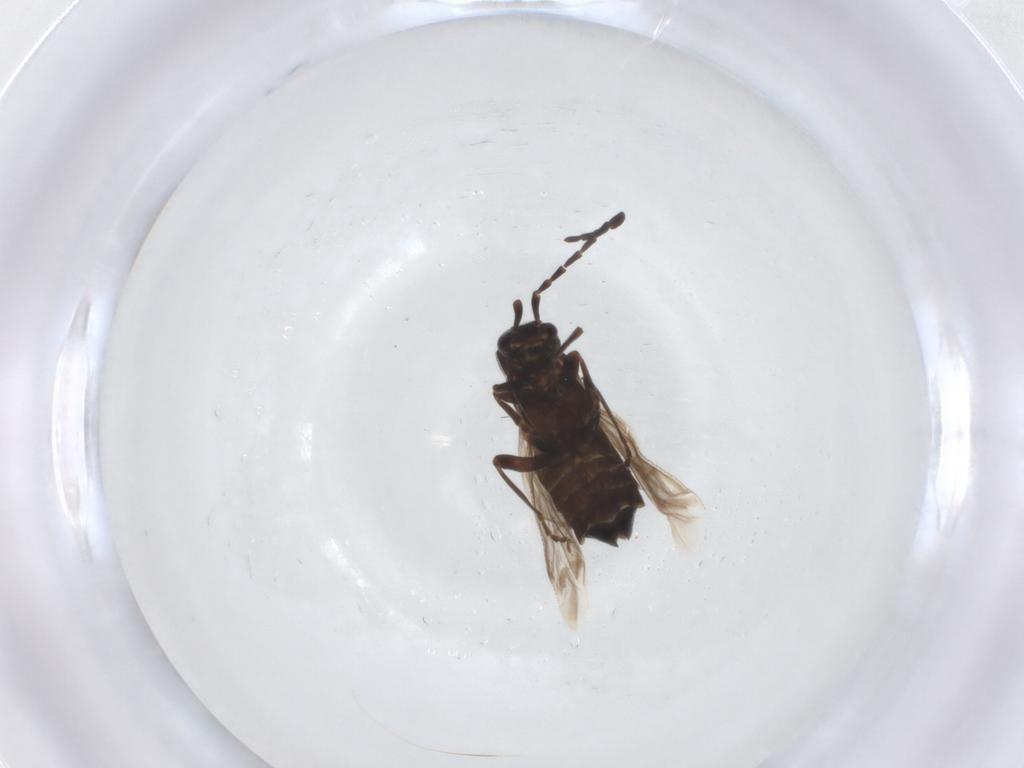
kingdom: Animalia
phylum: Arthropoda
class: Insecta
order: Coleoptera
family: Cantharidae
